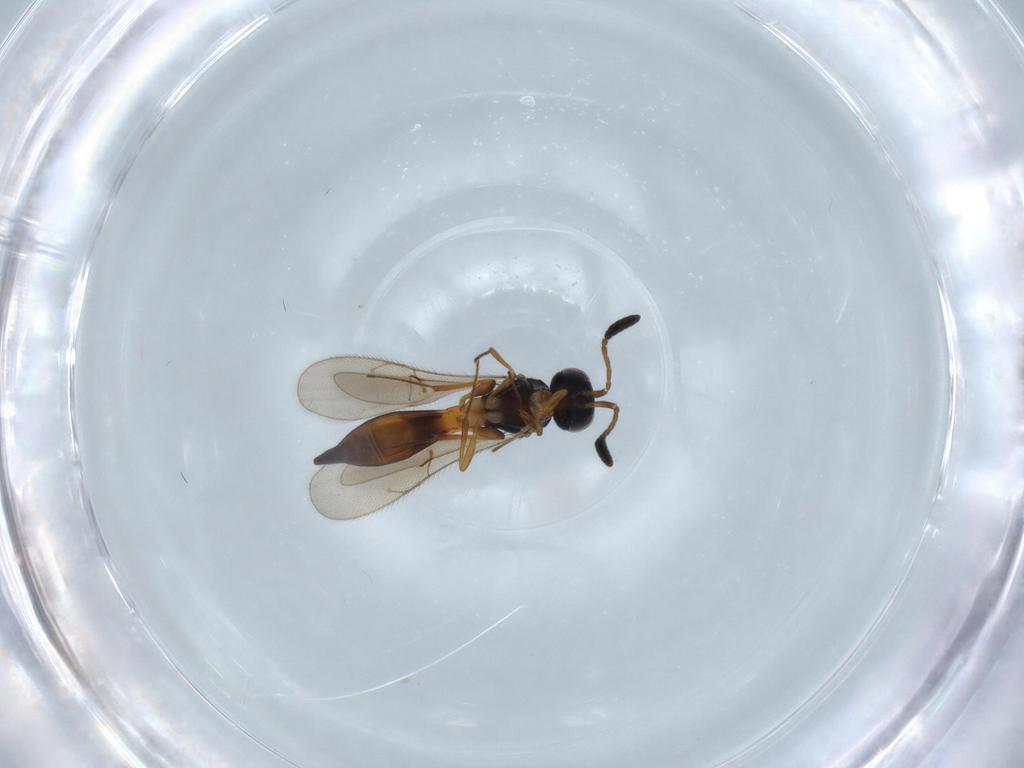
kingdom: Animalia
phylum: Arthropoda
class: Insecta
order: Hymenoptera
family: Scelionidae
